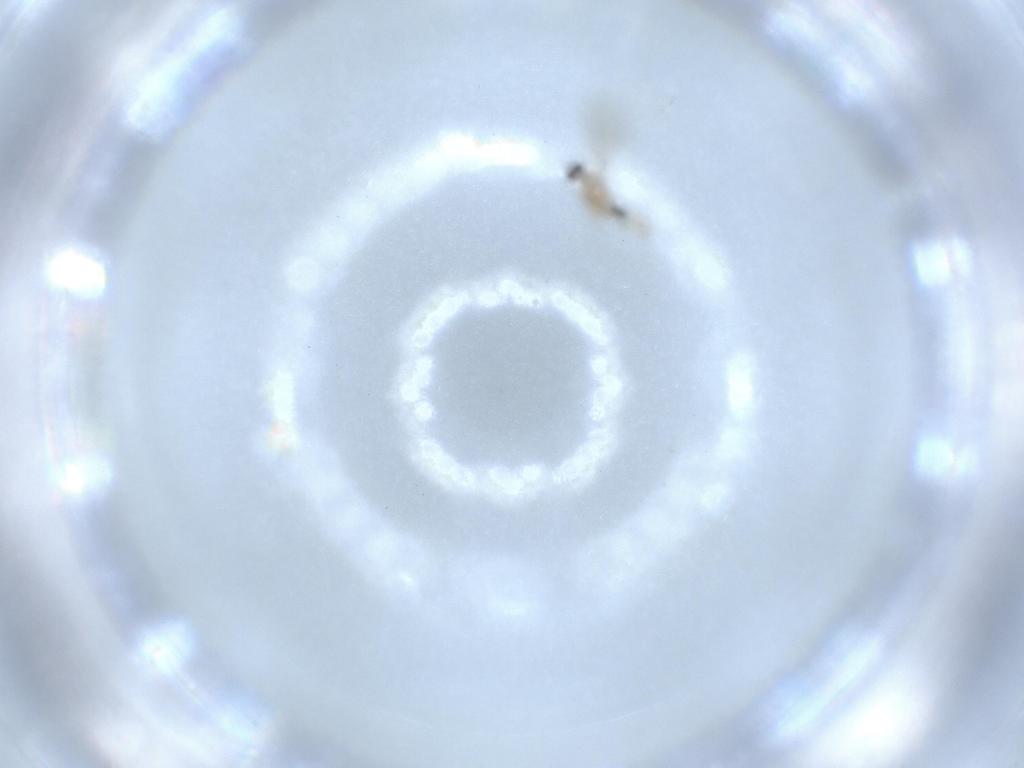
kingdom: Animalia
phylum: Arthropoda
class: Insecta
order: Diptera
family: Cecidomyiidae
